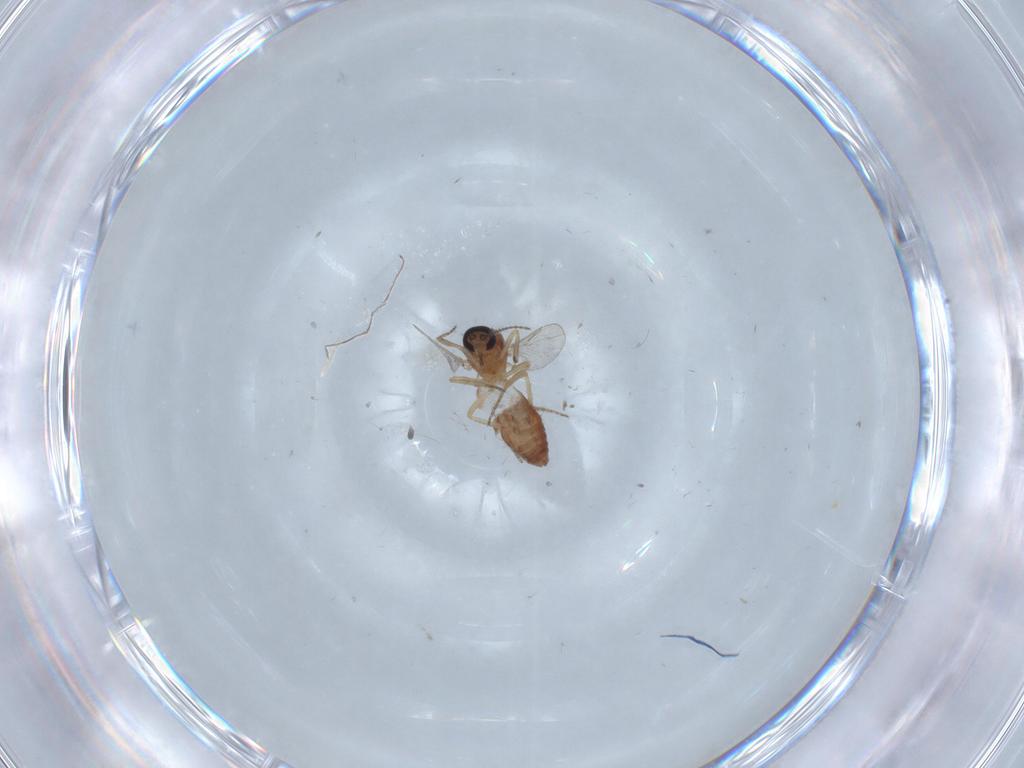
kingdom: Animalia
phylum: Arthropoda
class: Insecta
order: Diptera
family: Ceratopogonidae
